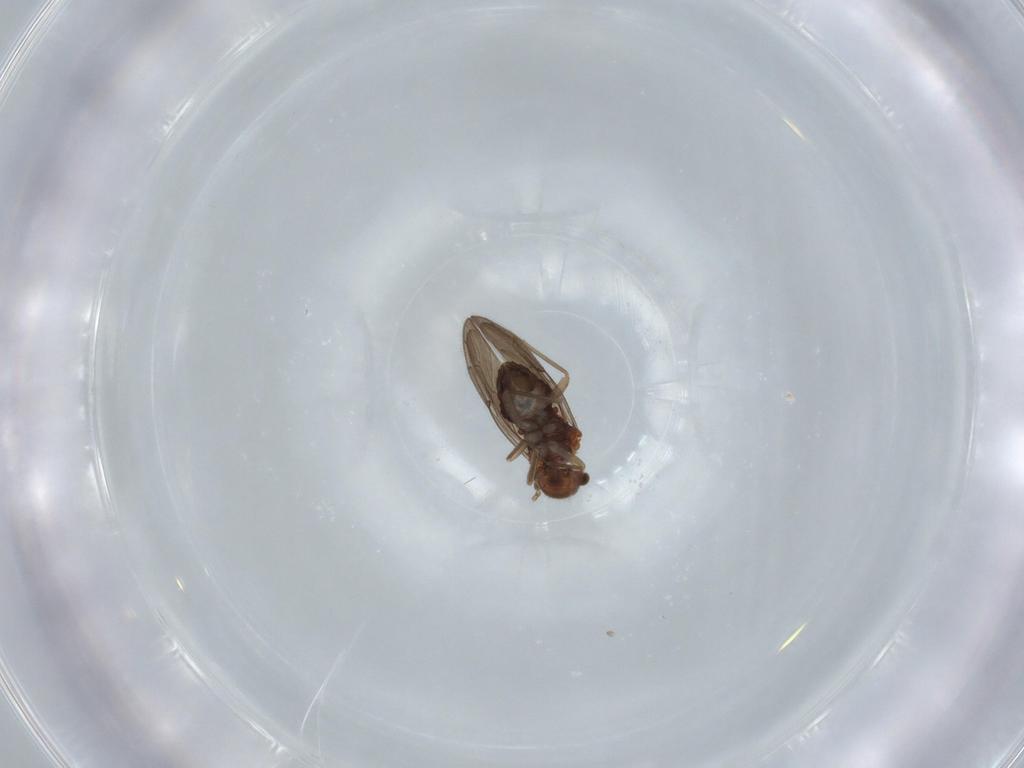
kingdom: Animalia
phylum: Arthropoda
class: Insecta
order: Psocodea
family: Ectopsocidae
